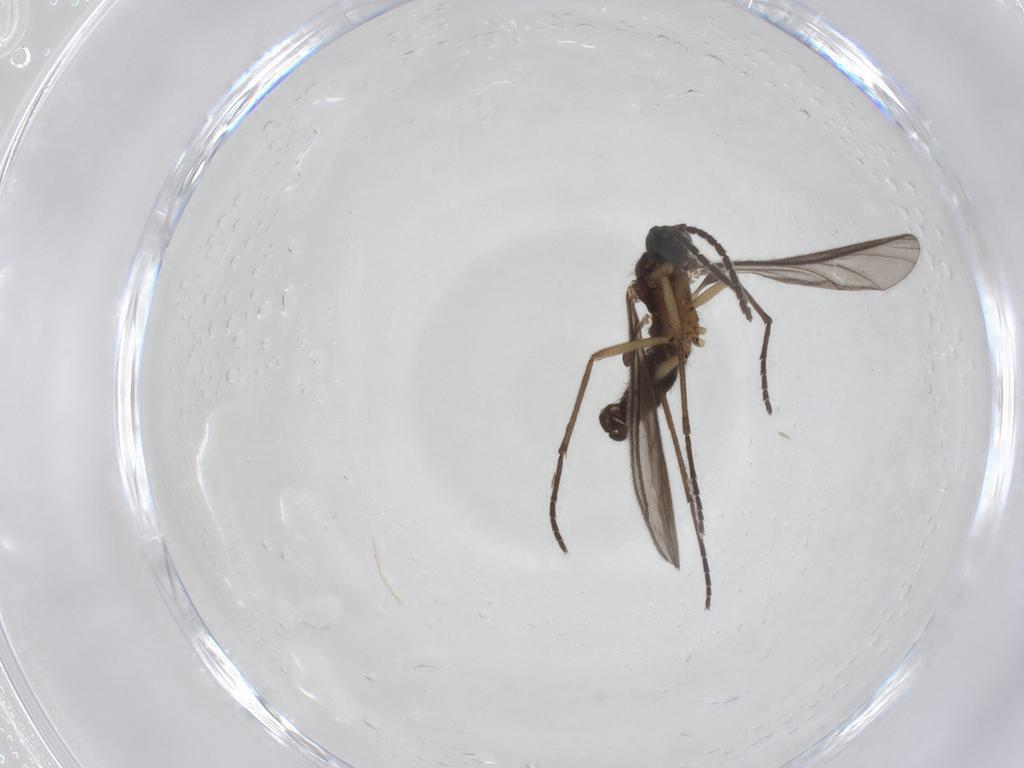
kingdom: Animalia
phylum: Arthropoda
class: Insecta
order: Diptera
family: Sciaridae
